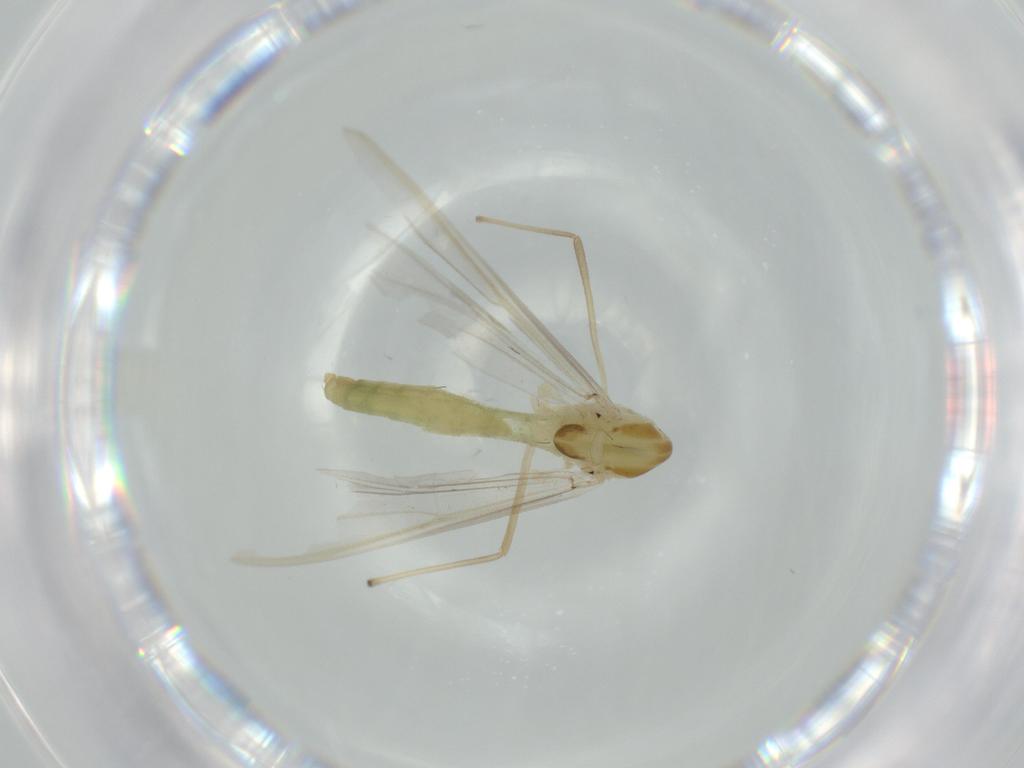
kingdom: Animalia
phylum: Arthropoda
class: Insecta
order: Diptera
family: Chironomidae
